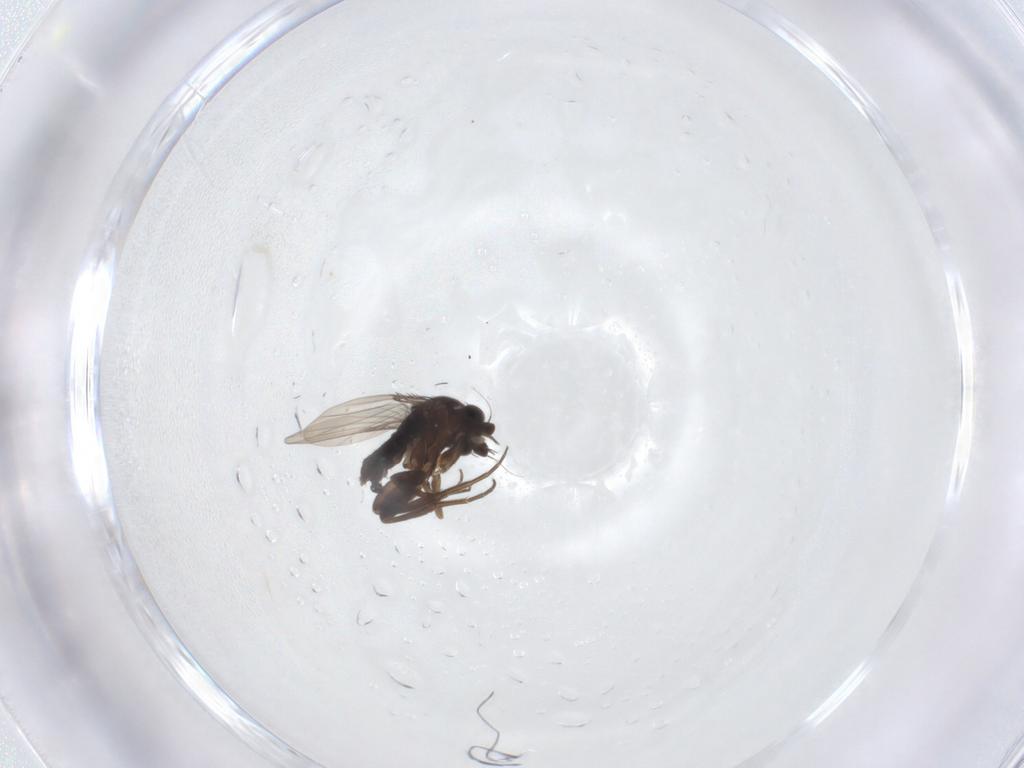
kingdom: Animalia
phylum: Arthropoda
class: Insecta
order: Diptera
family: Phoridae
